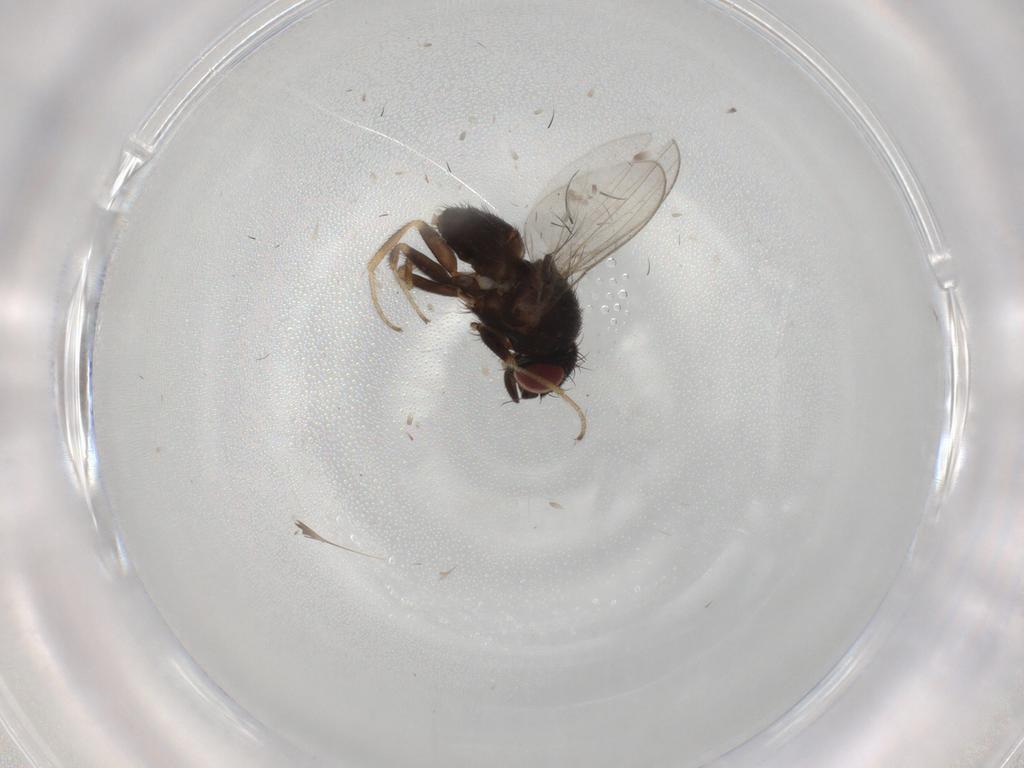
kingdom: Animalia
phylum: Arthropoda
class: Insecta
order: Diptera
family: Milichiidae
